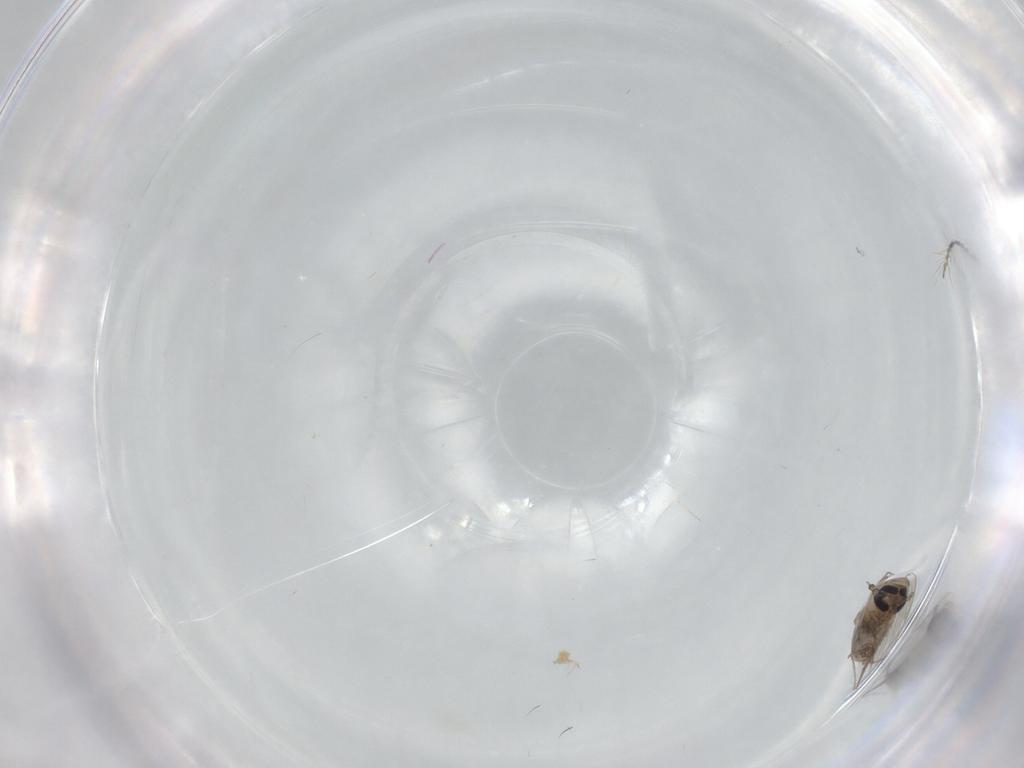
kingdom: Animalia
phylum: Arthropoda
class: Insecta
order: Diptera
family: Psychodidae
